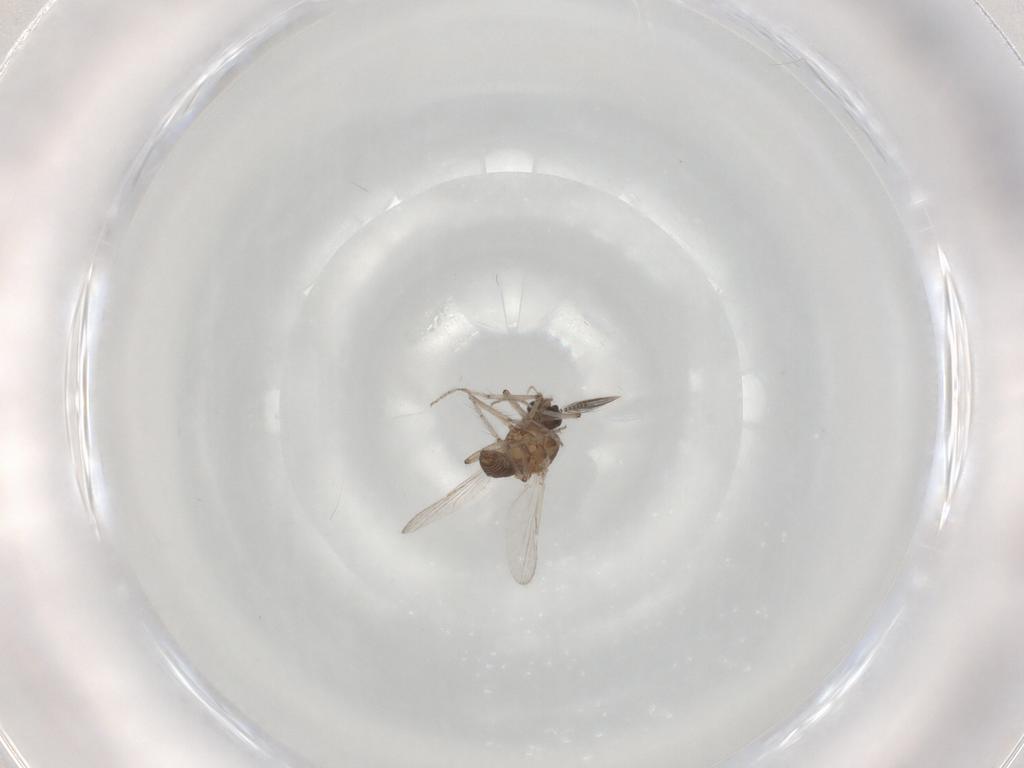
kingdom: Animalia
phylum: Arthropoda
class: Insecta
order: Diptera
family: Ceratopogonidae
